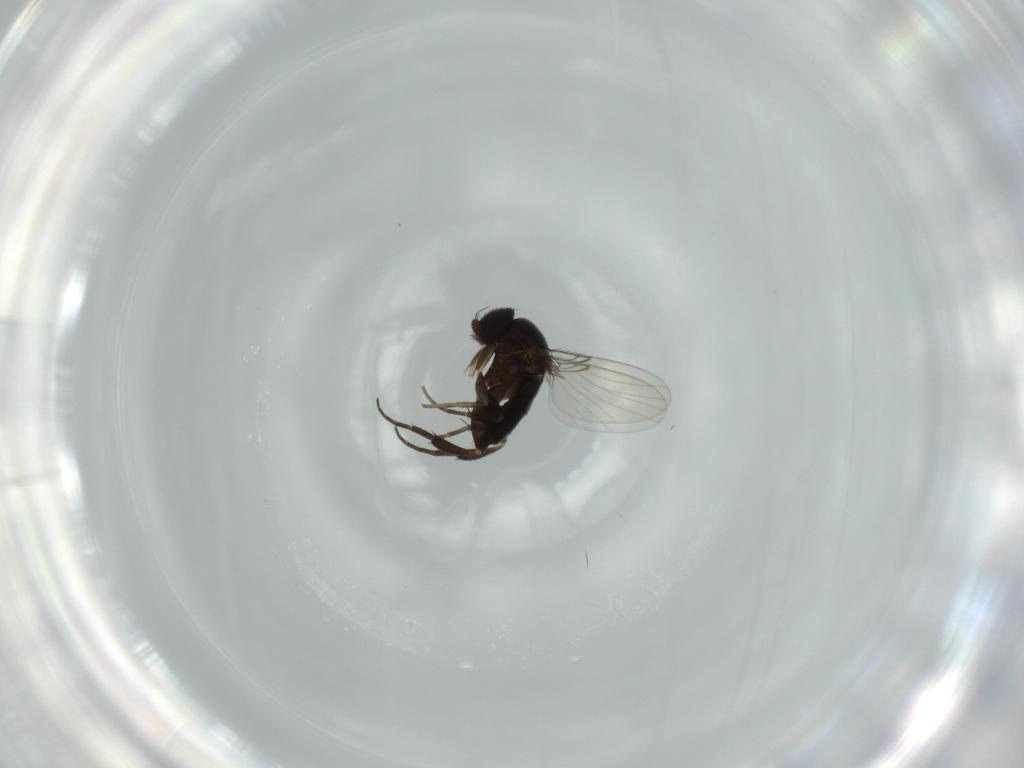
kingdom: Animalia
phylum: Arthropoda
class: Insecta
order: Diptera
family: Phoridae
